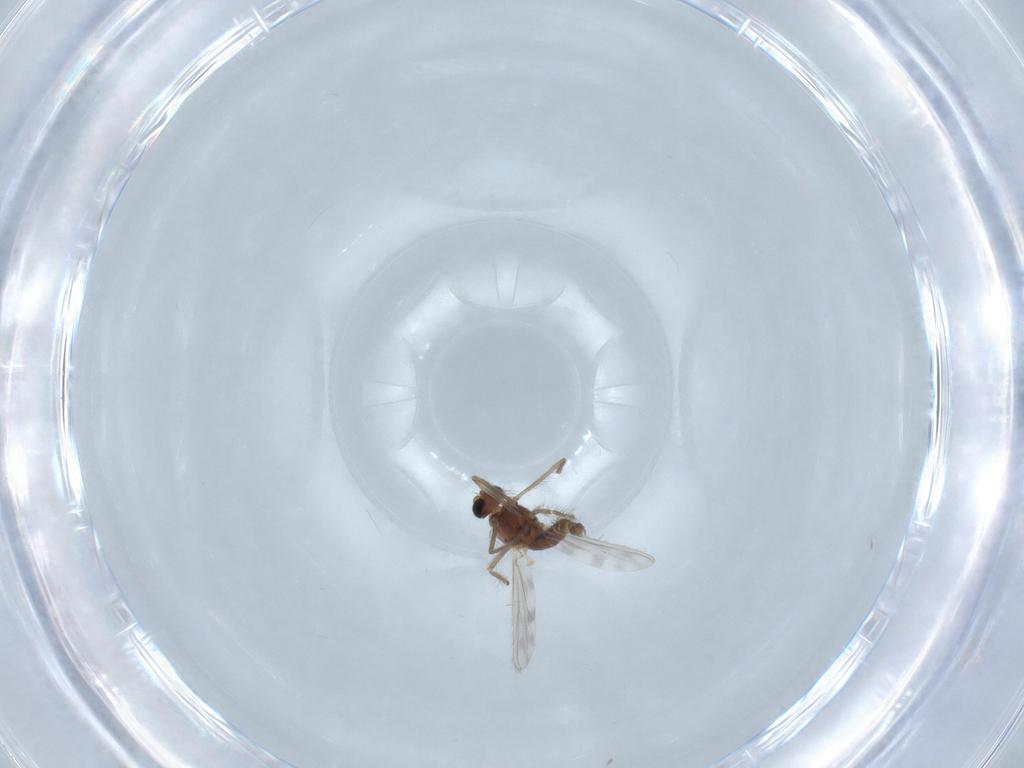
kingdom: Animalia
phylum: Arthropoda
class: Insecta
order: Diptera
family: Chironomidae
